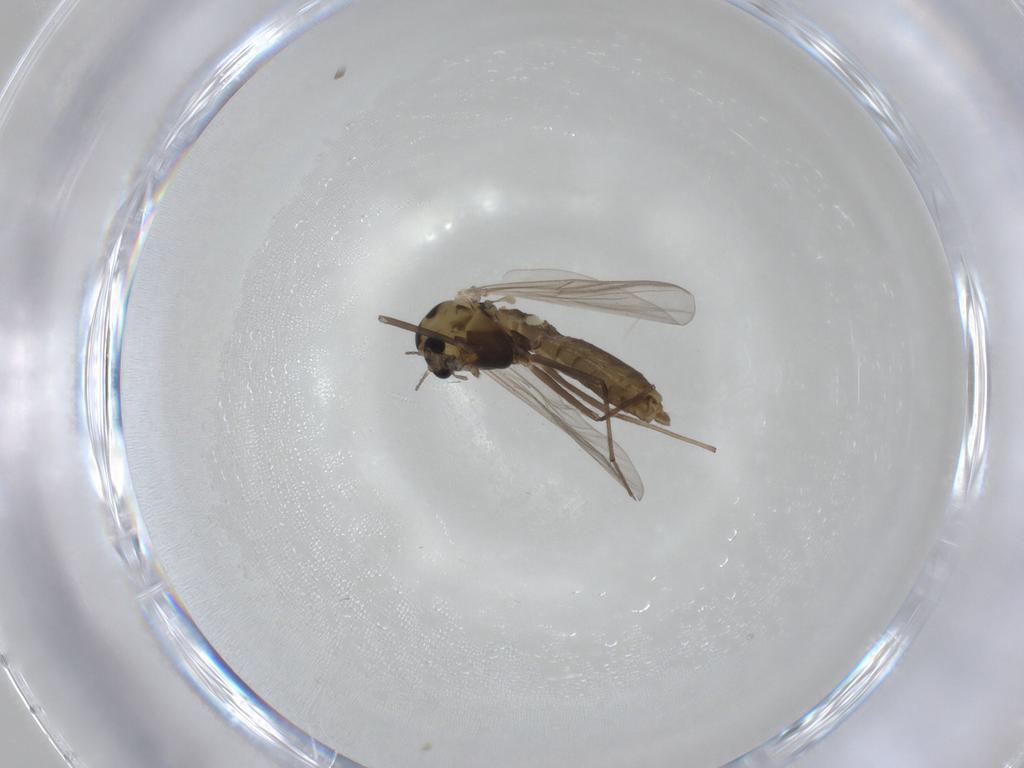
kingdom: Animalia
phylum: Arthropoda
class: Insecta
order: Diptera
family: Chironomidae
